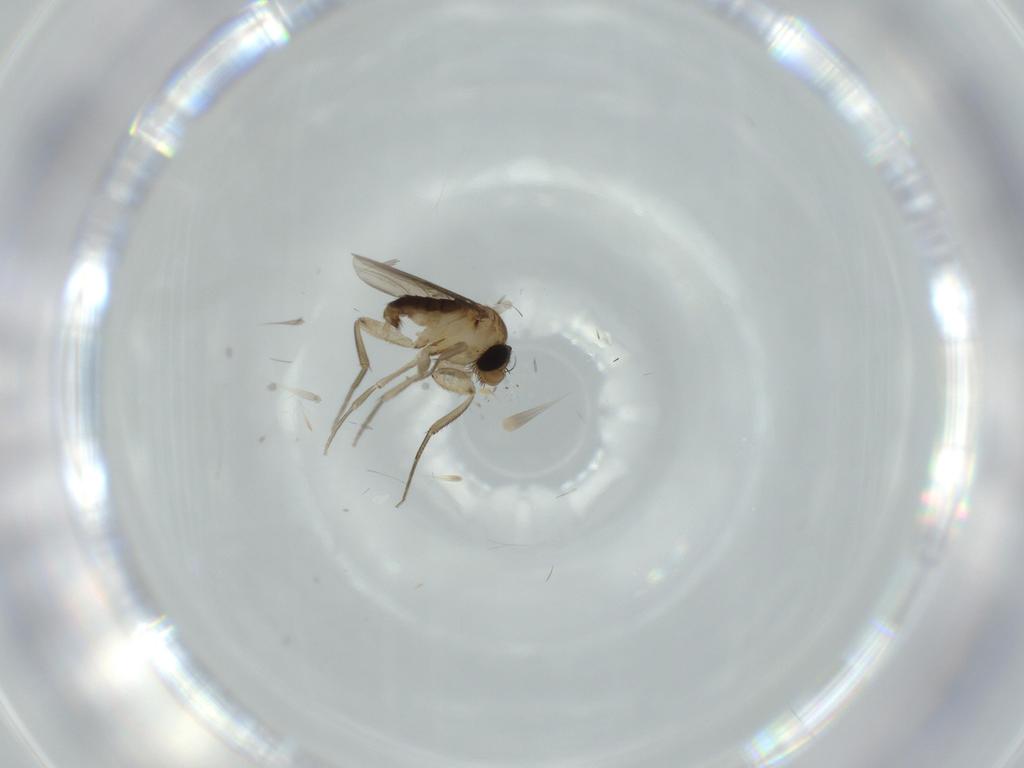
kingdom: Animalia
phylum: Arthropoda
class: Insecta
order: Diptera
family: Phoridae
